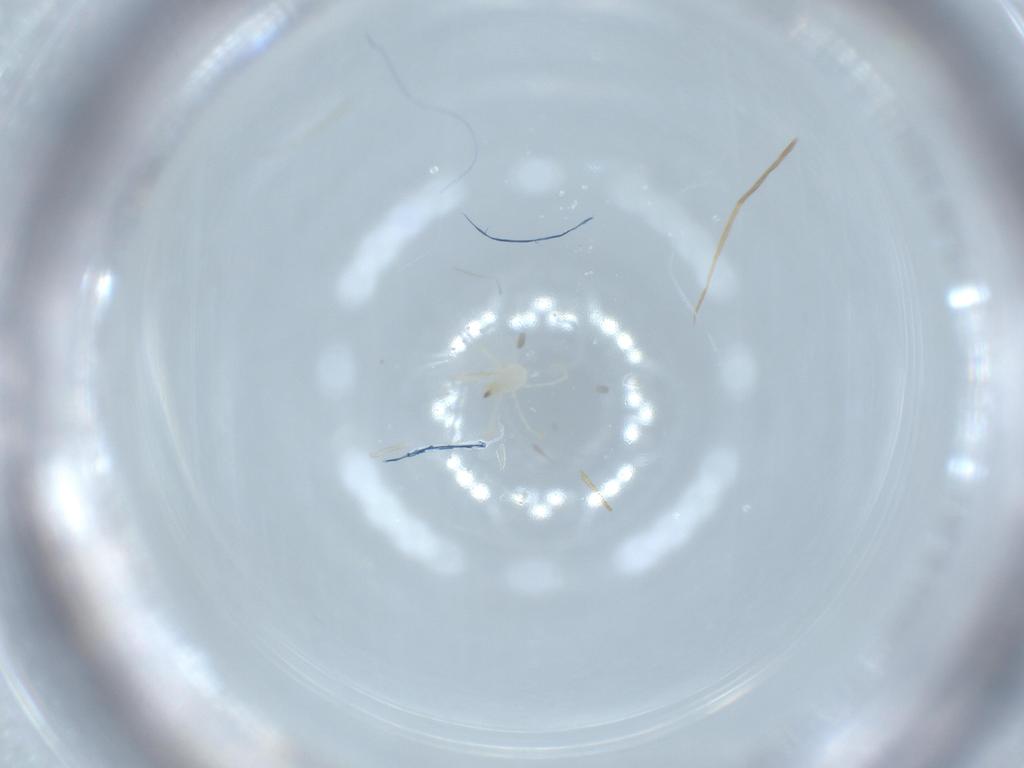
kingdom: Animalia
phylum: Arthropoda
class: Arachnida
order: Trombidiformes
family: Erythraeidae
